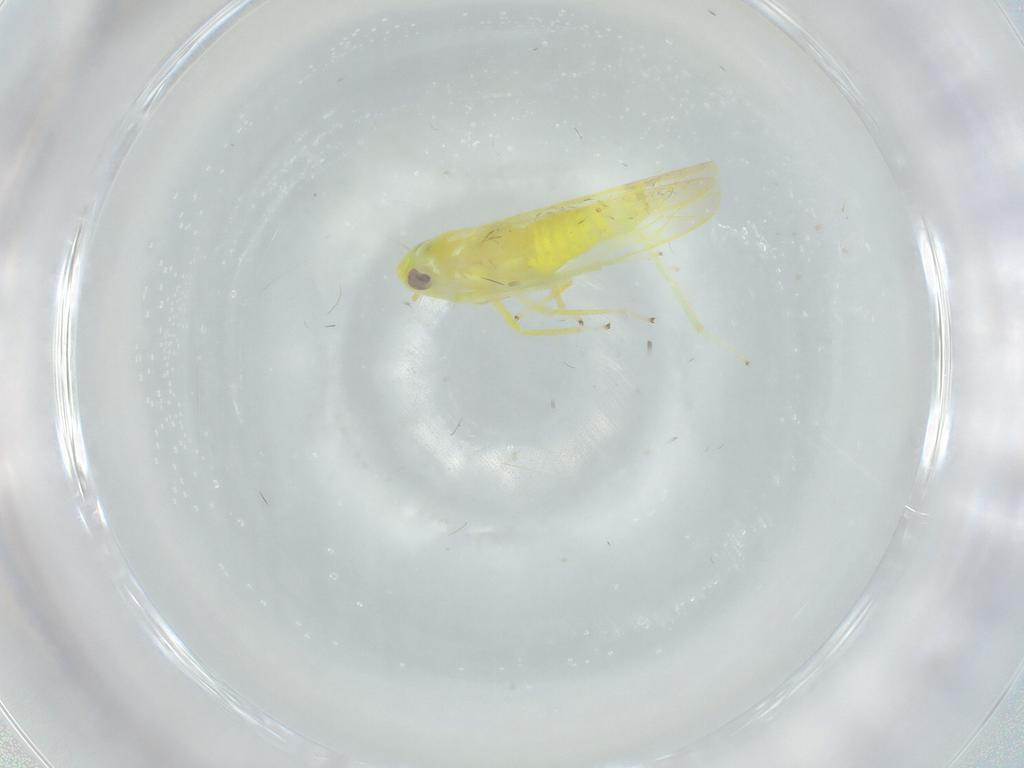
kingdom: Animalia
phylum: Arthropoda
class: Insecta
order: Hemiptera
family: Cicadellidae
